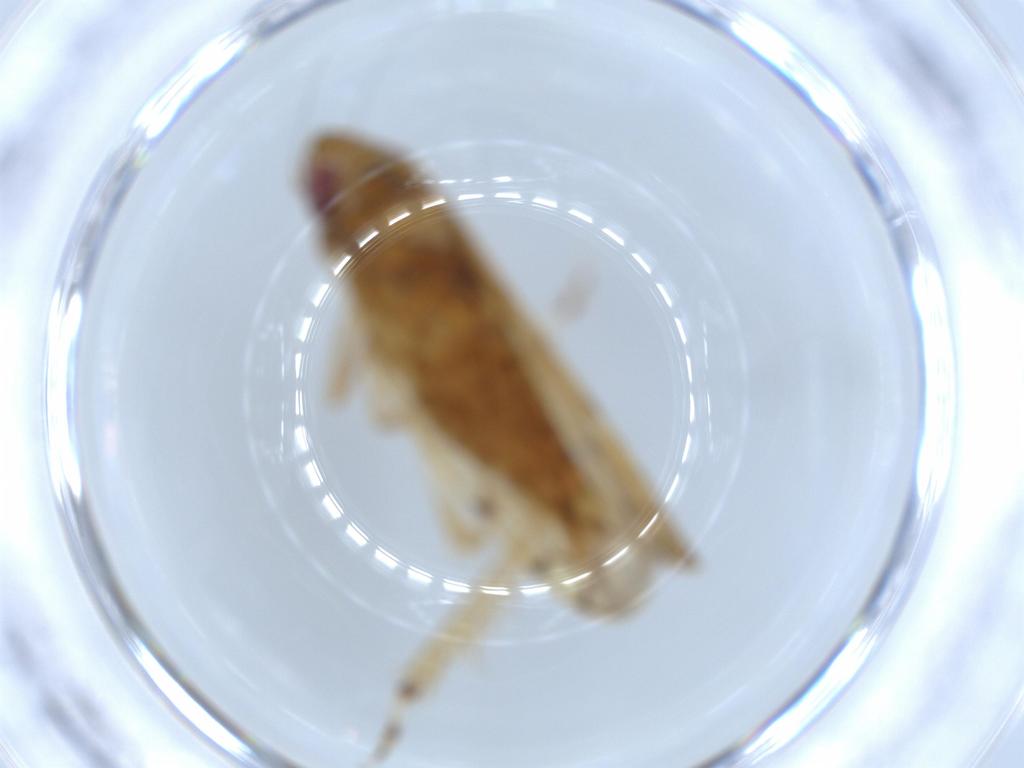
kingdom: Animalia
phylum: Arthropoda
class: Insecta
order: Hemiptera
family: Cicadellidae
